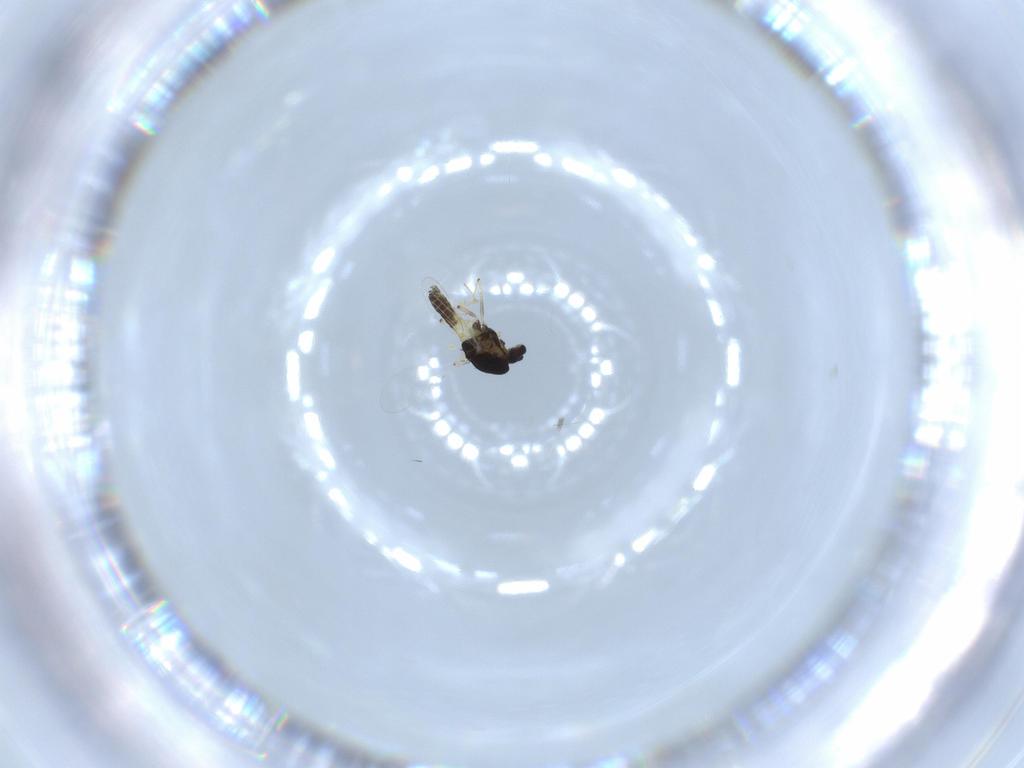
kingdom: Animalia
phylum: Arthropoda
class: Insecta
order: Diptera
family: Chironomidae
